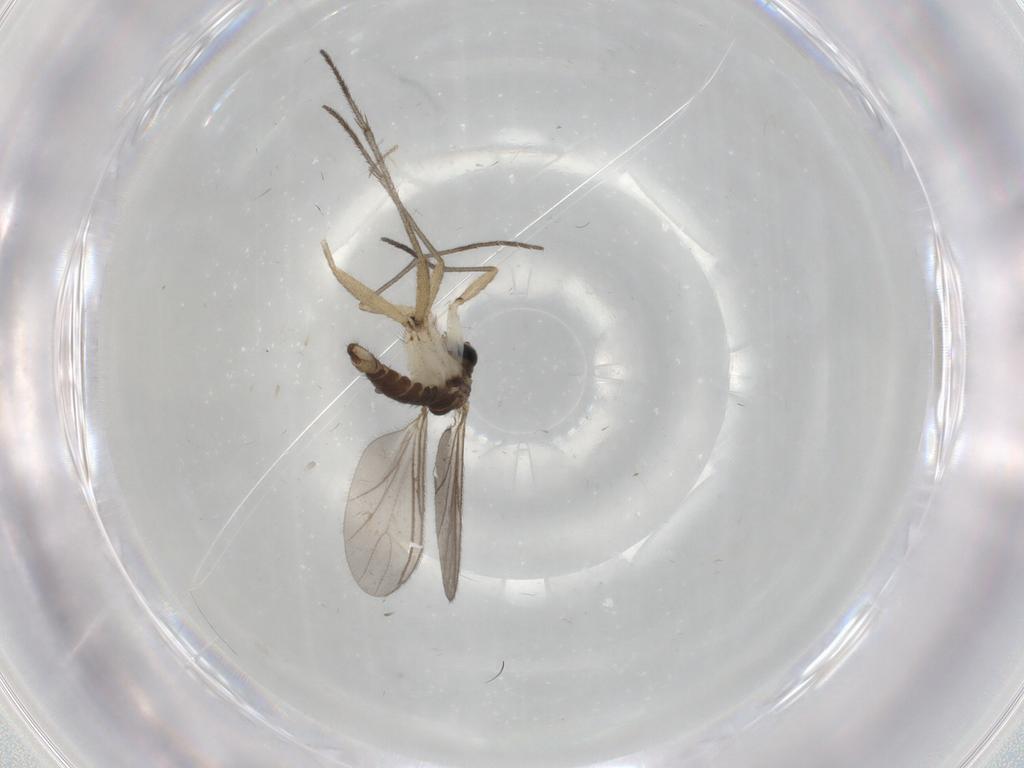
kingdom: Animalia
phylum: Arthropoda
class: Insecta
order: Diptera
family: Sciaridae
